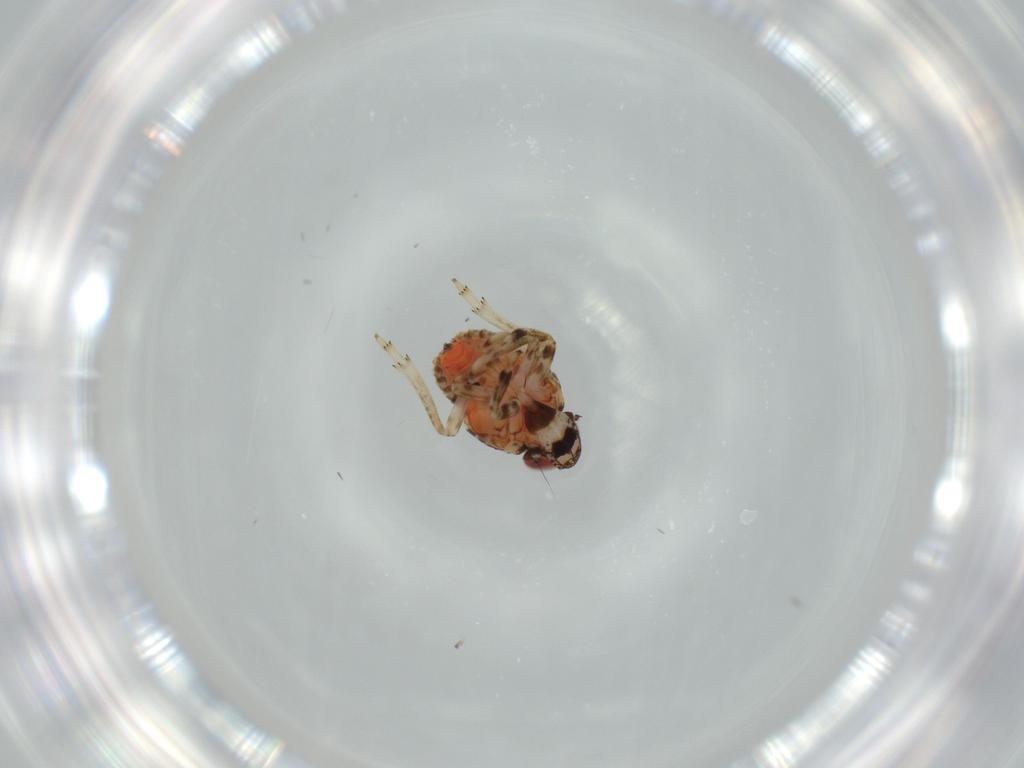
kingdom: Animalia
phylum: Arthropoda
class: Insecta
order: Hemiptera
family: Issidae
